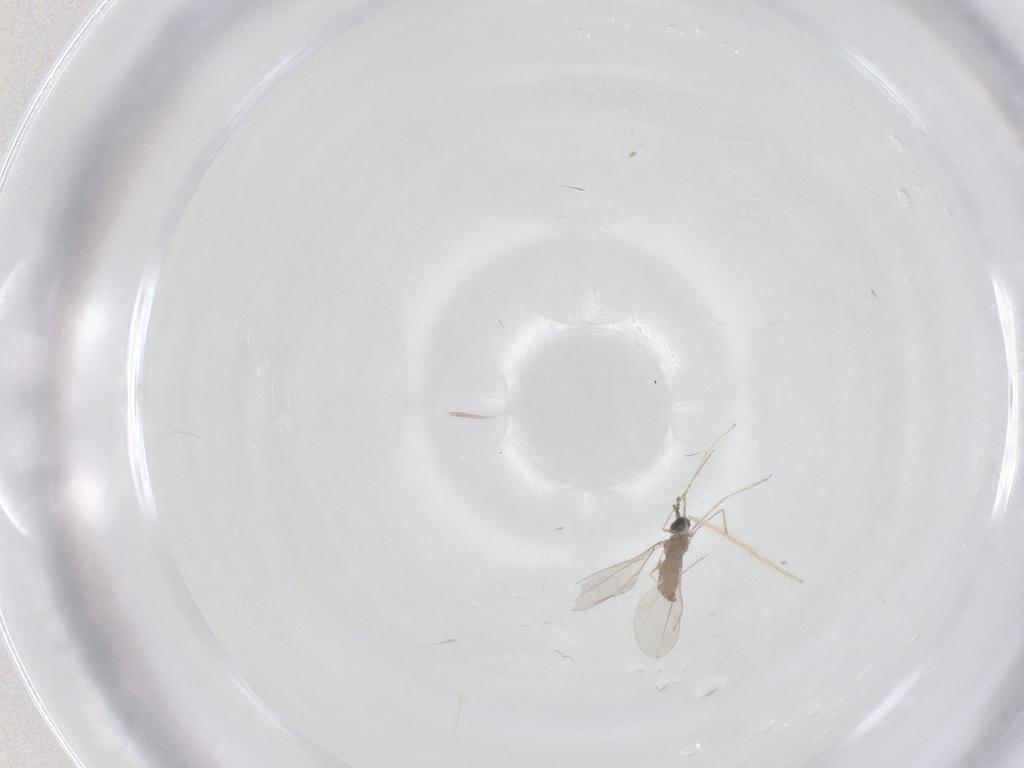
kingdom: Animalia
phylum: Arthropoda
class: Insecta
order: Diptera
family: Chironomidae
